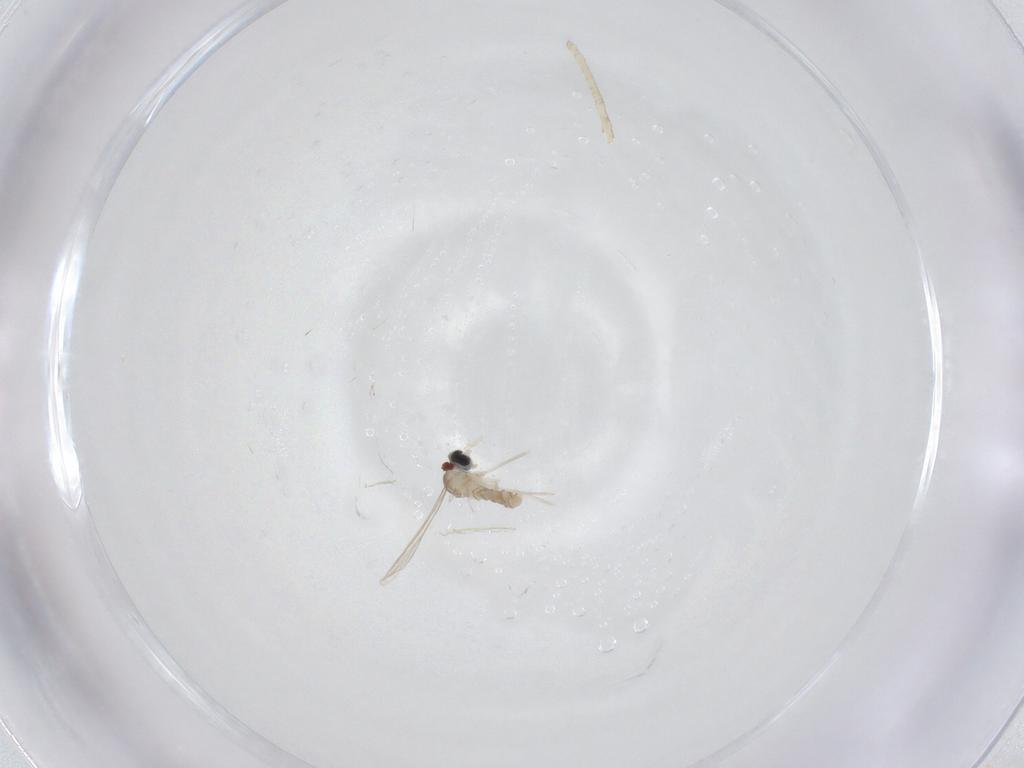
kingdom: Animalia
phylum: Arthropoda
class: Insecta
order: Diptera
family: Cecidomyiidae
